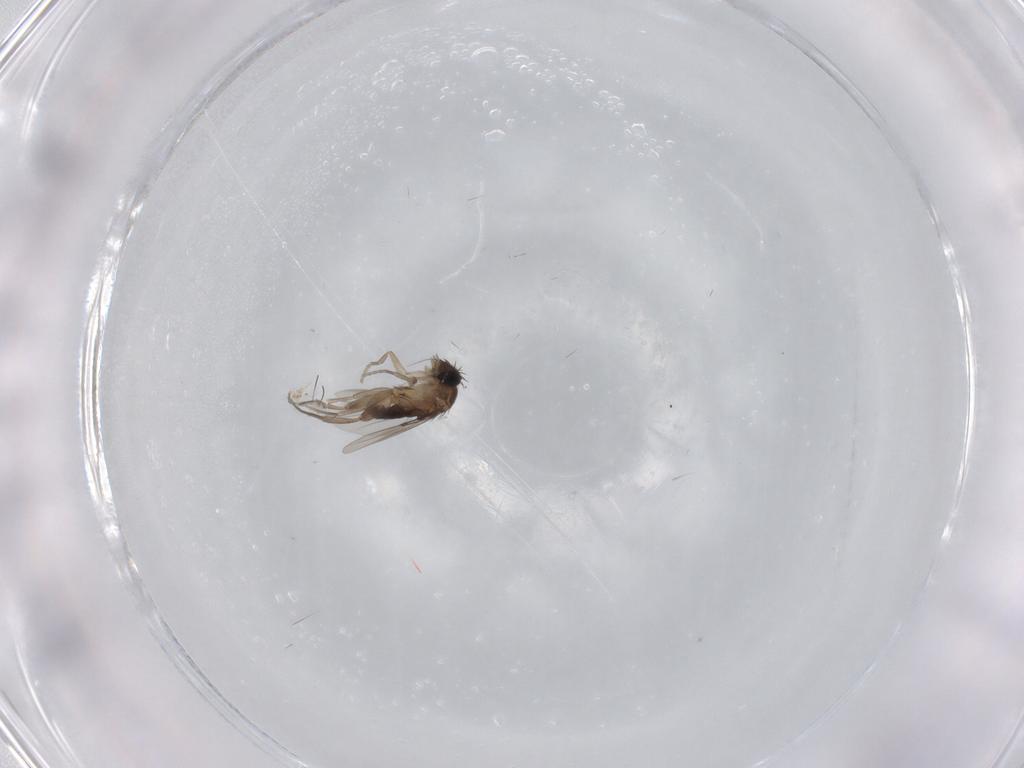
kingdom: Animalia
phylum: Arthropoda
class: Insecta
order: Diptera
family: Phoridae
